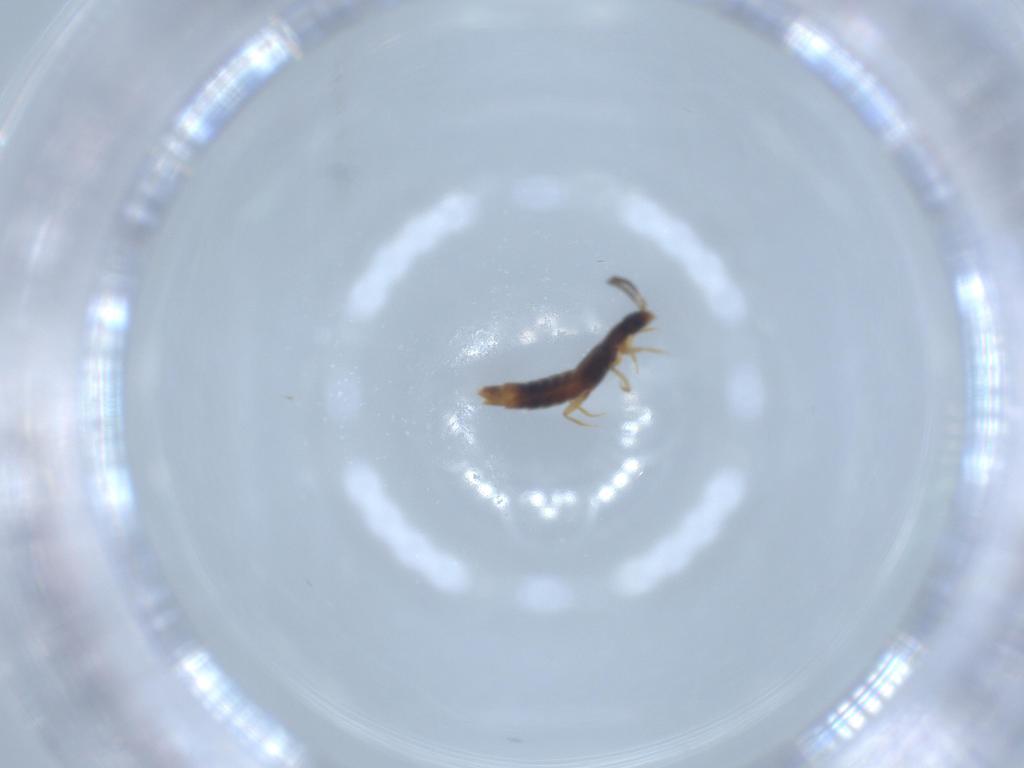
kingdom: Animalia
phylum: Arthropoda
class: Insecta
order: Coleoptera
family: Staphylinidae
